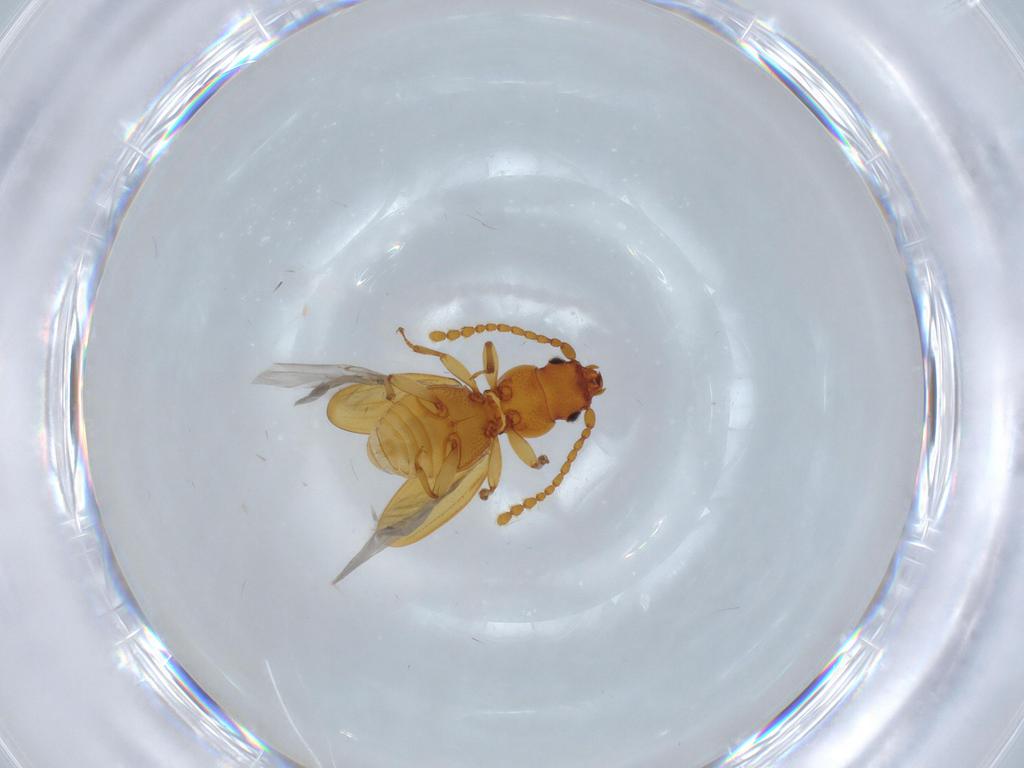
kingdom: Animalia
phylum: Arthropoda
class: Insecta
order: Coleoptera
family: Laemophloeidae
